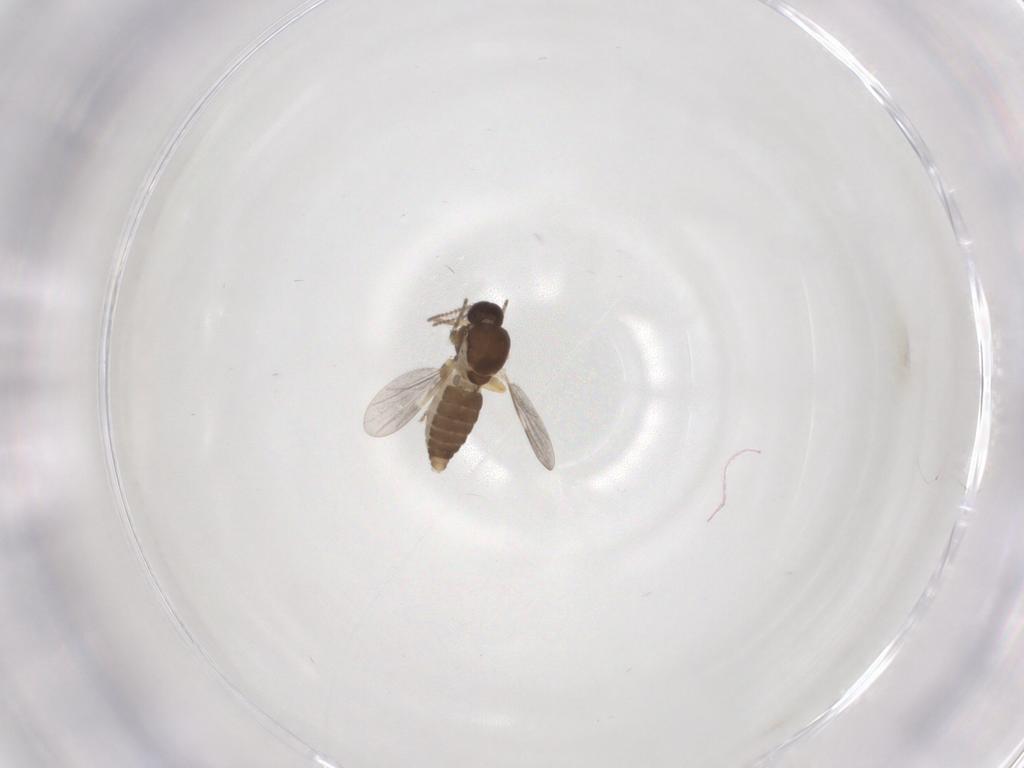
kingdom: Animalia
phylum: Arthropoda
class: Insecta
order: Diptera
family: Ceratopogonidae
